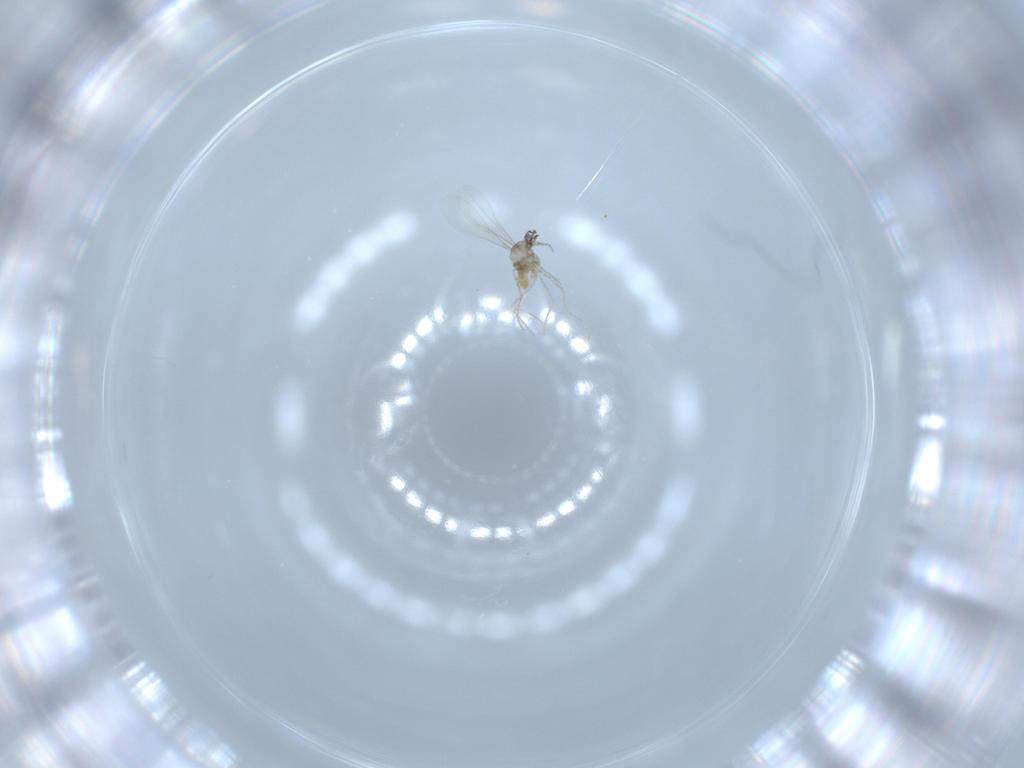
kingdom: Animalia
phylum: Arthropoda
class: Insecta
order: Diptera
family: Cecidomyiidae
